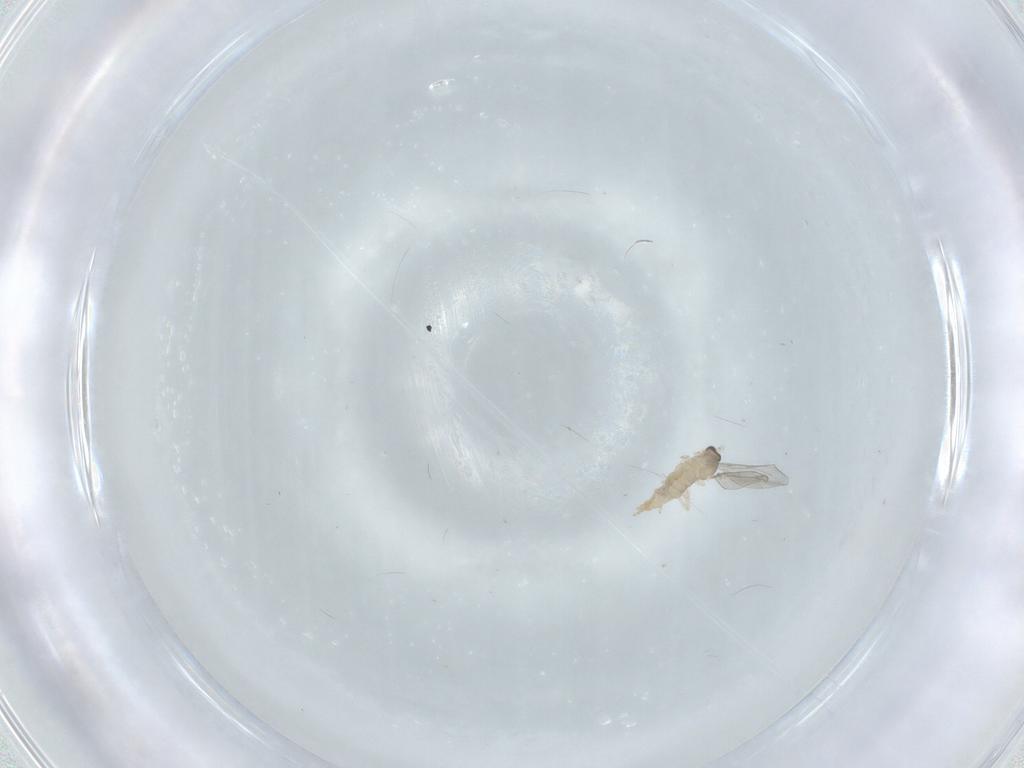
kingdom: Animalia
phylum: Arthropoda
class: Insecta
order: Diptera
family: Cecidomyiidae
